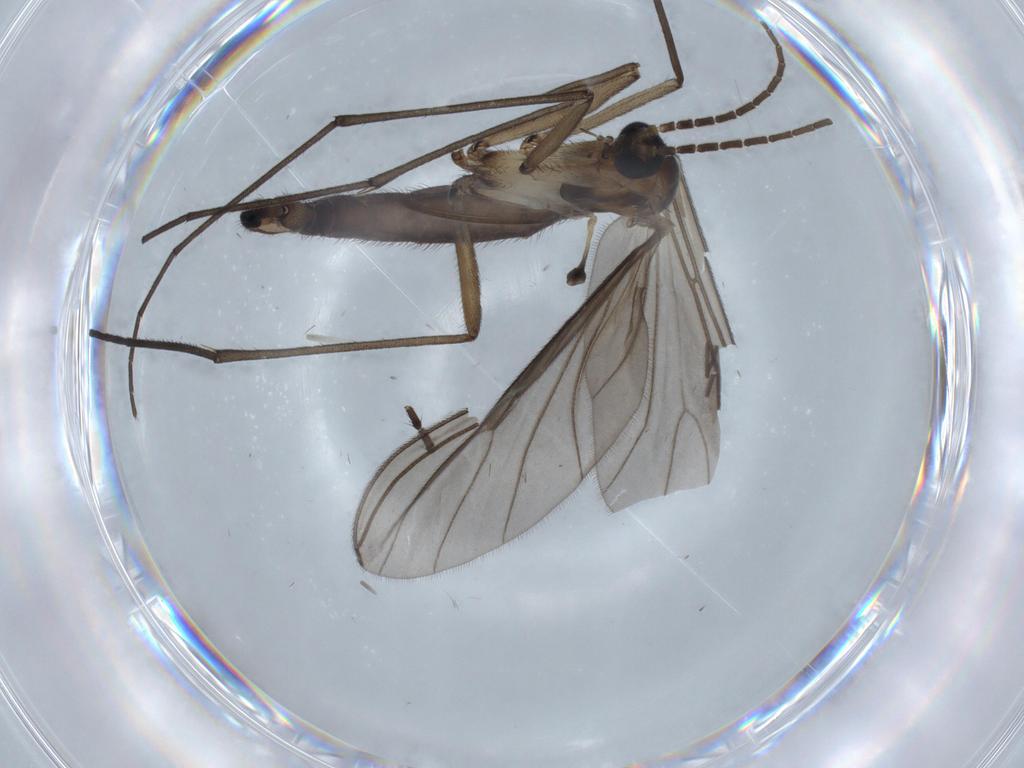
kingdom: Animalia
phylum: Arthropoda
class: Insecta
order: Diptera
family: Sciaridae
